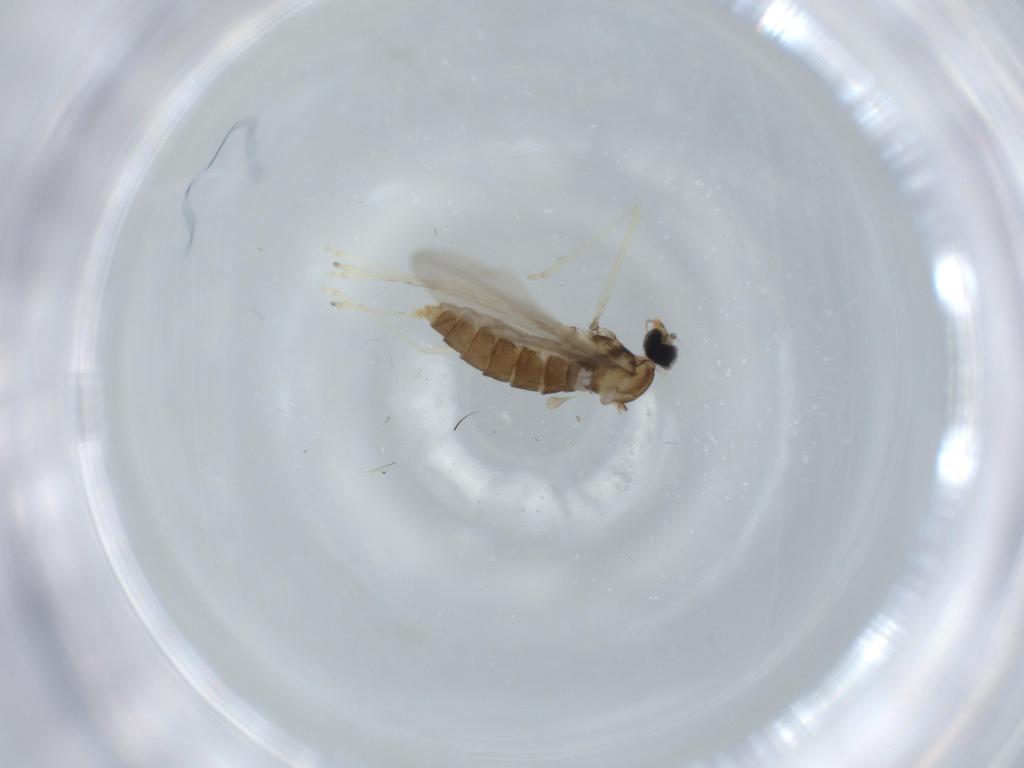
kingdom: Animalia
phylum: Arthropoda
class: Insecta
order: Diptera
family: Cecidomyiidae
